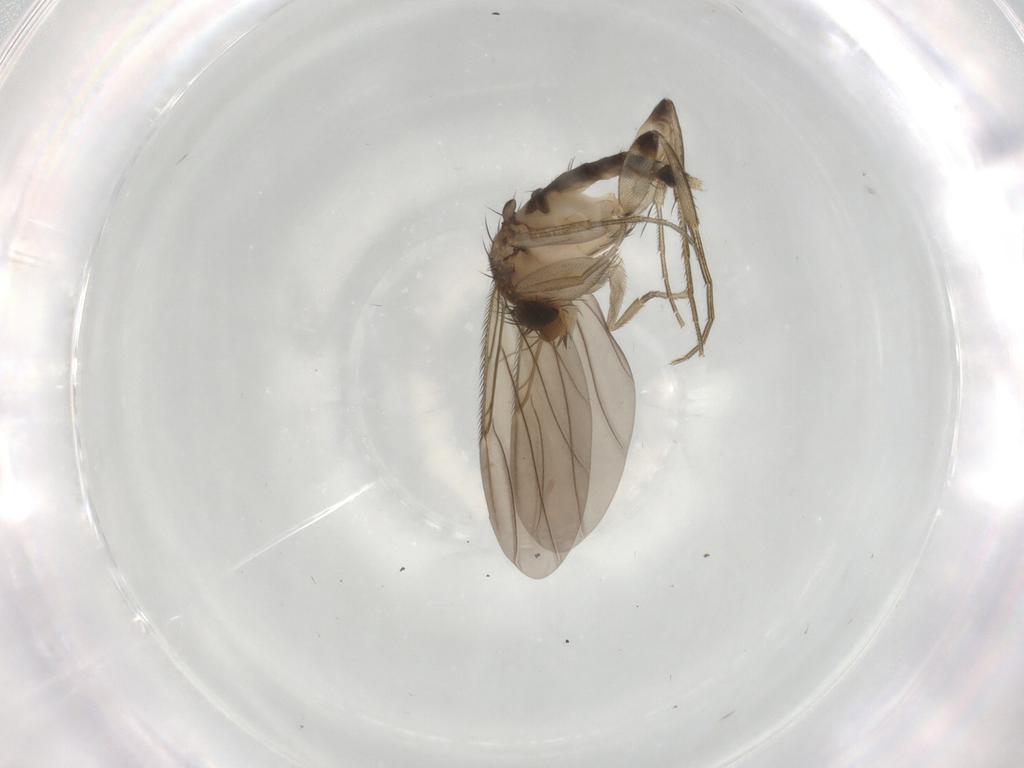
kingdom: Animalia
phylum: Arthropoda
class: Insecta
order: Diptera
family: Phoridae
